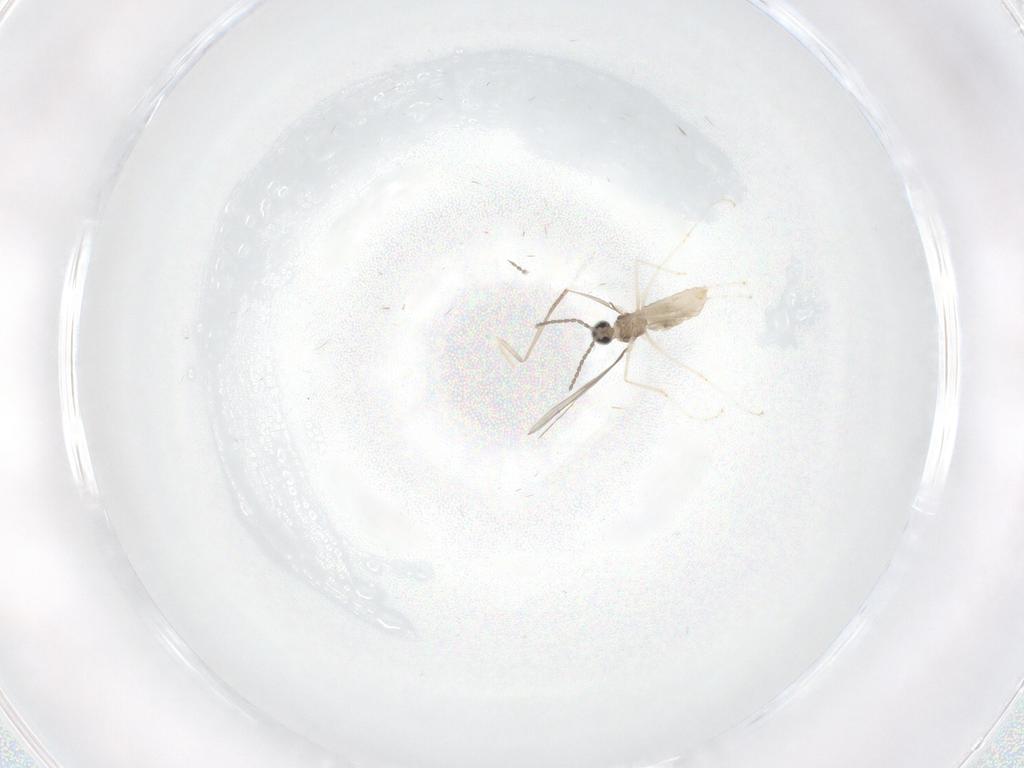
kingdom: Animalia
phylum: Arthropoda
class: Insecta
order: Diptera
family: Cecidomyiidae
